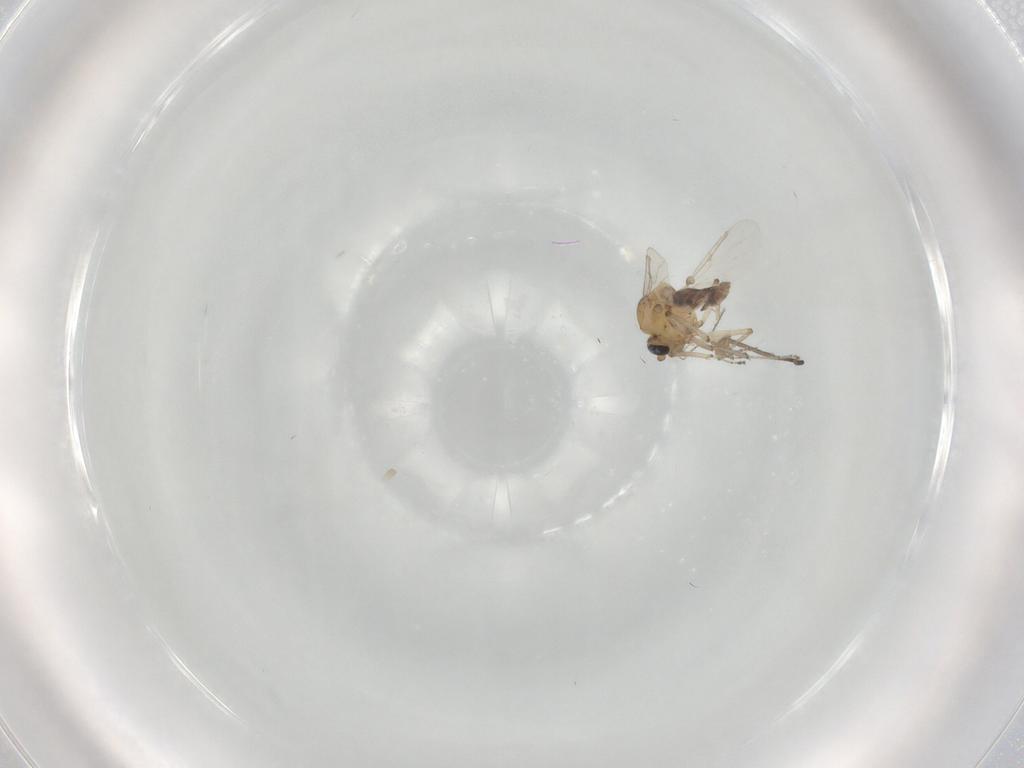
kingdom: Animalia
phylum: Arthropoda
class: Insecta
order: Diptera
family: Ceratopogonidae
